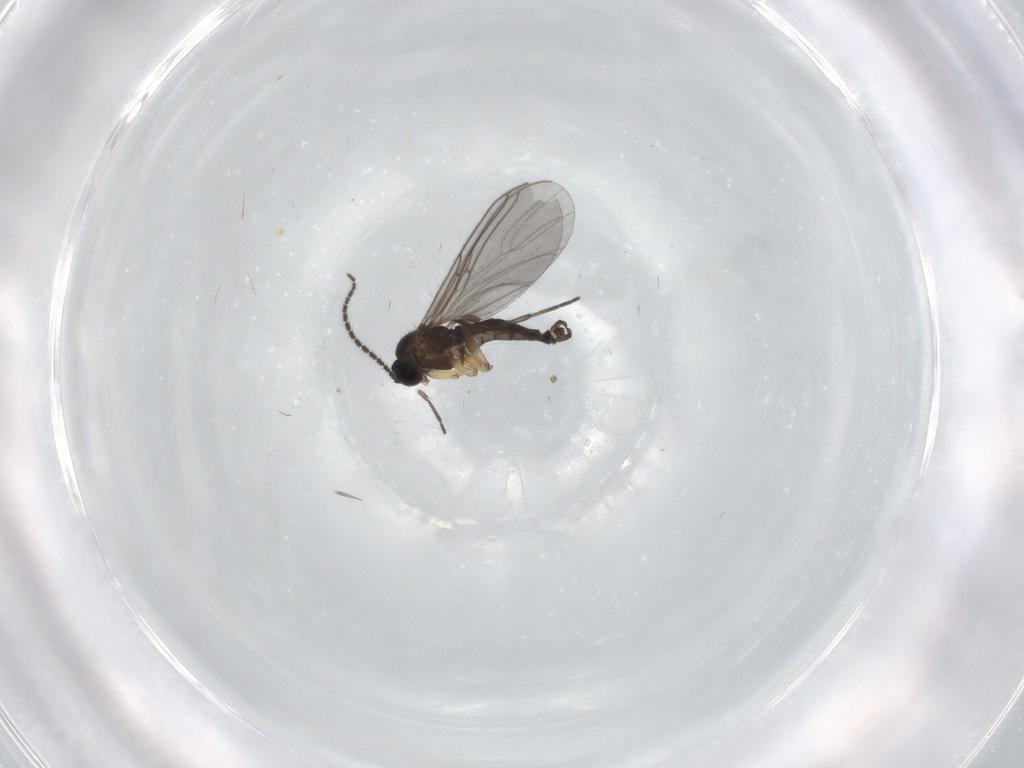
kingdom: Animalia
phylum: Arthropoda
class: Insecta
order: Diptera
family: Sciaridae
